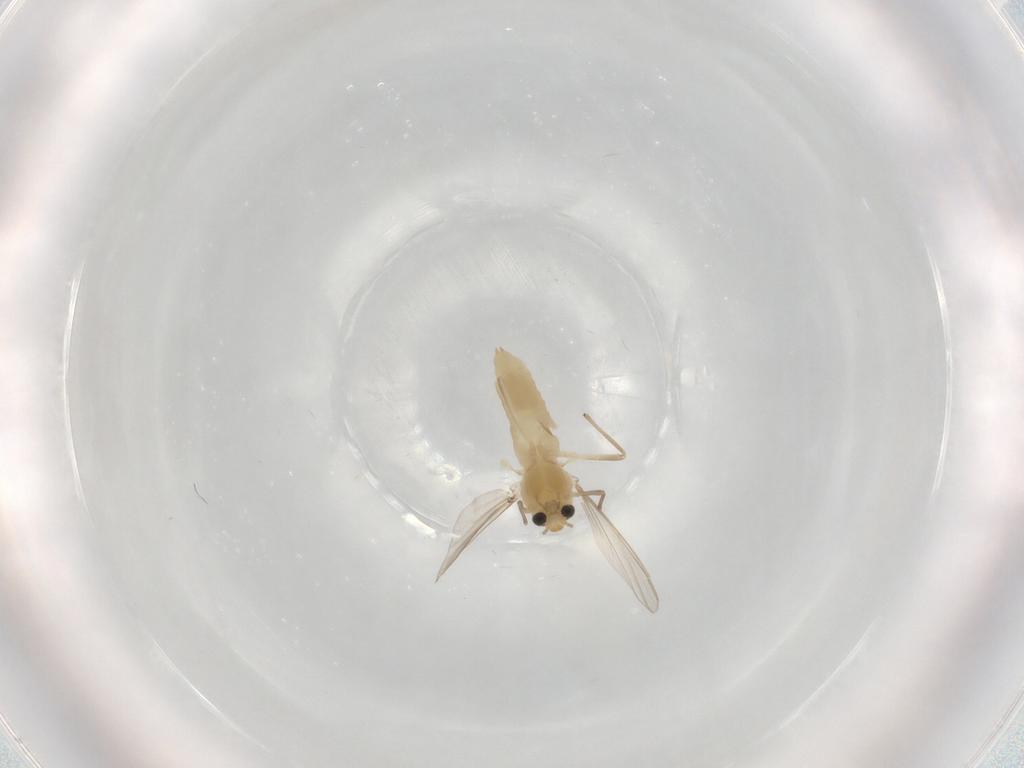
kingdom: Animalia
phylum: Arthropoda
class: Insecta
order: Diptera
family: Chironomidae
